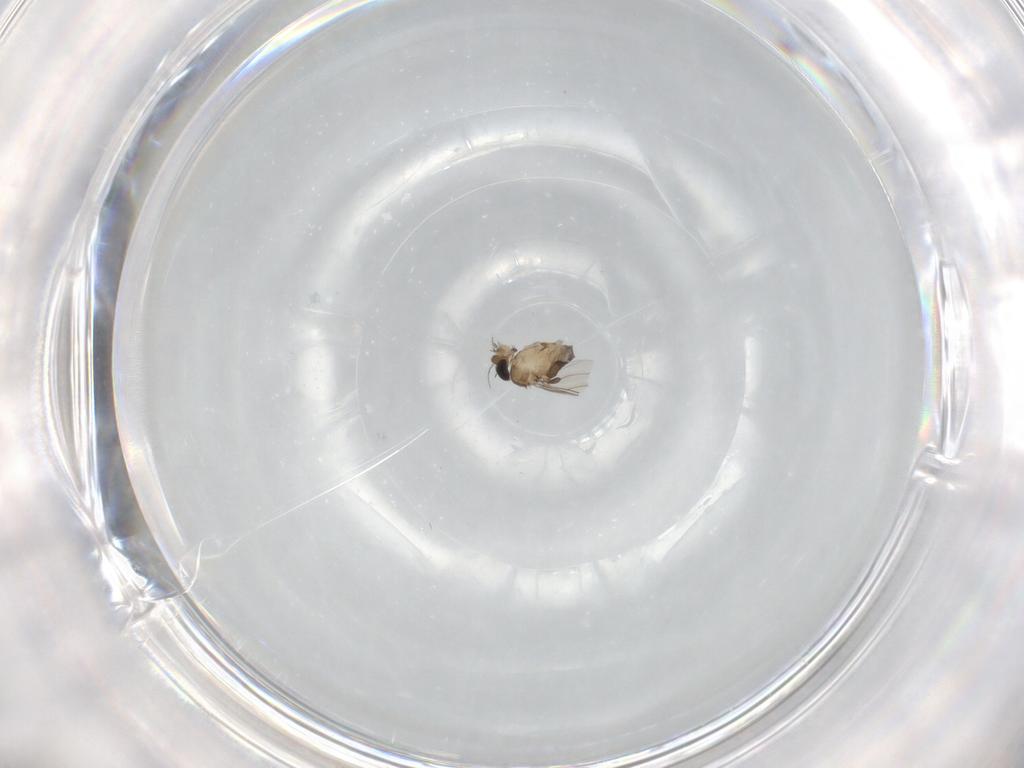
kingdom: Animalia
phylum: Arthropoda
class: Insecta
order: Diptera
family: Phoridae
